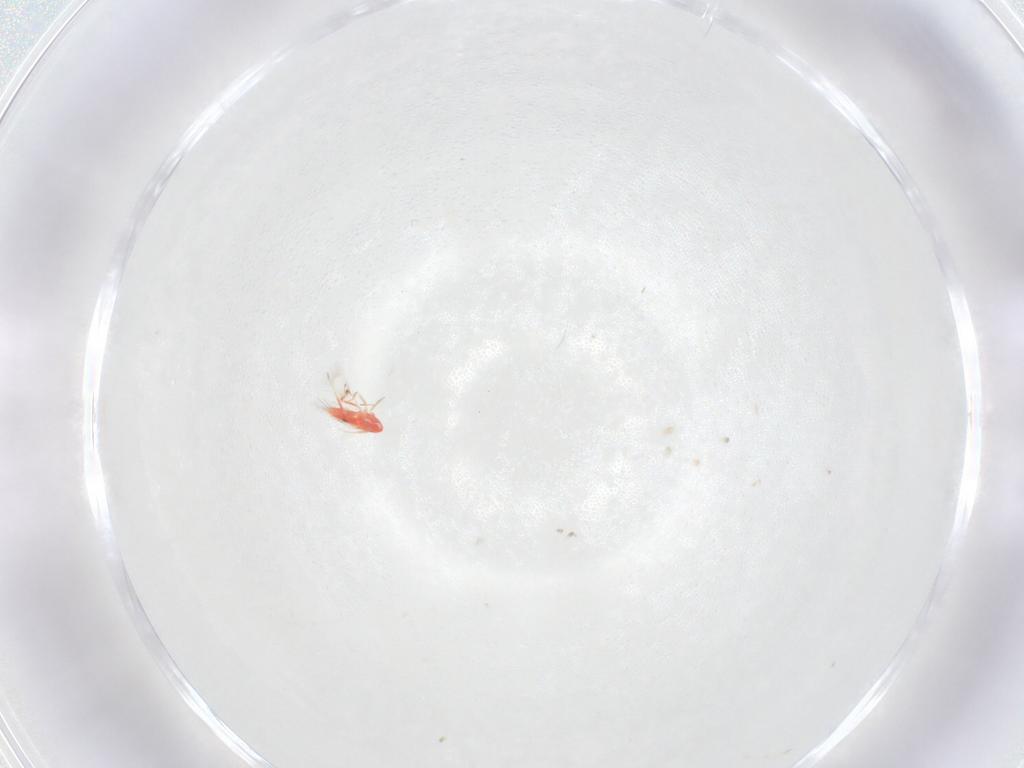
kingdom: Animalia
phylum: Arthropoda
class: Insecta
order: Hymenoptera
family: Trichogrammatidae
